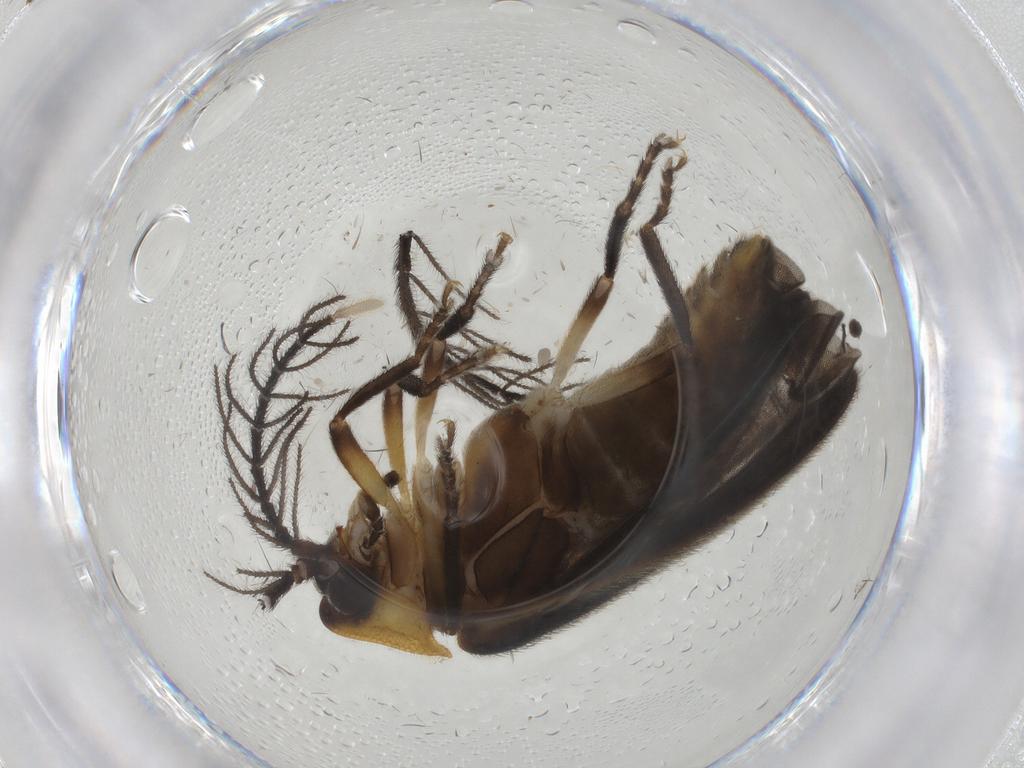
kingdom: Animalia
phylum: Arthropoda
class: Insecta
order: Coleoptera
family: Lampyridae
